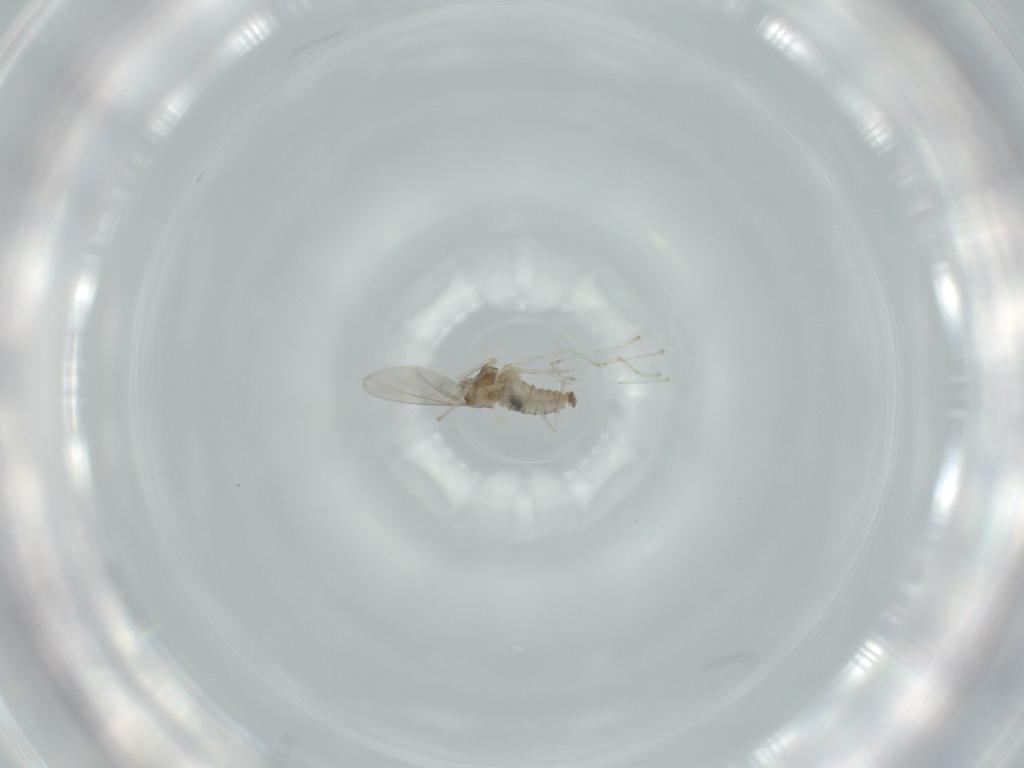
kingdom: Animalia
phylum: Arthropoda
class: Insecta
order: Diptera
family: Cecidomyiidae
